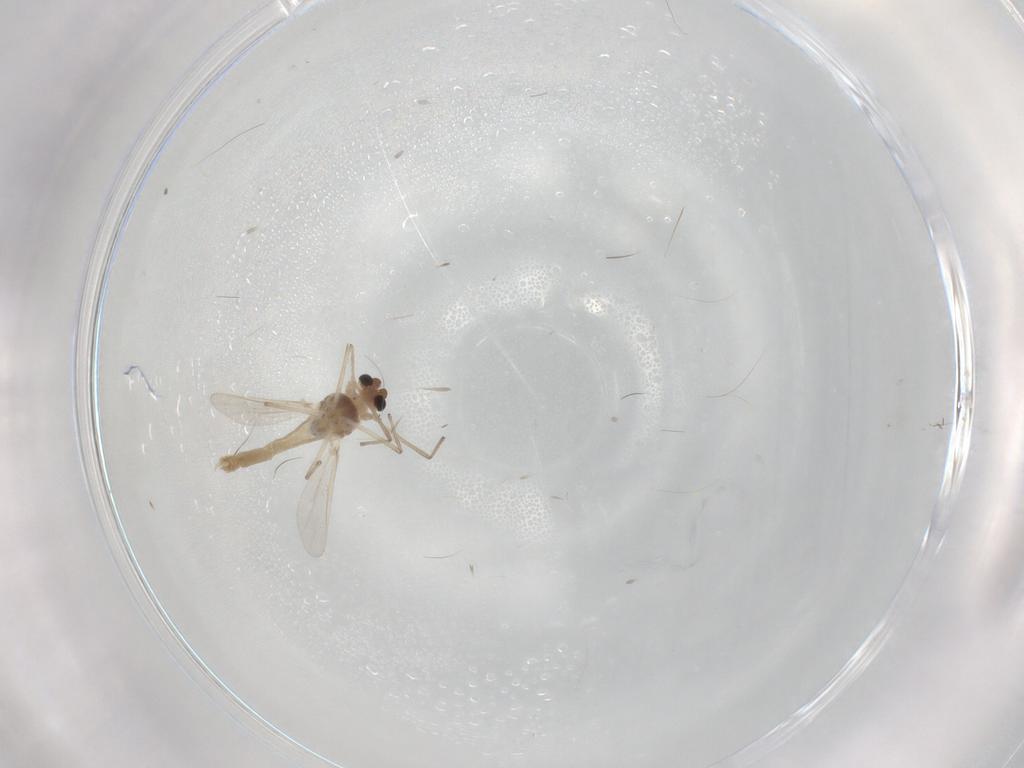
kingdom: Animalia
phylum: Arthropoda
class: Insecta
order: Diptera
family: Chironomidae
